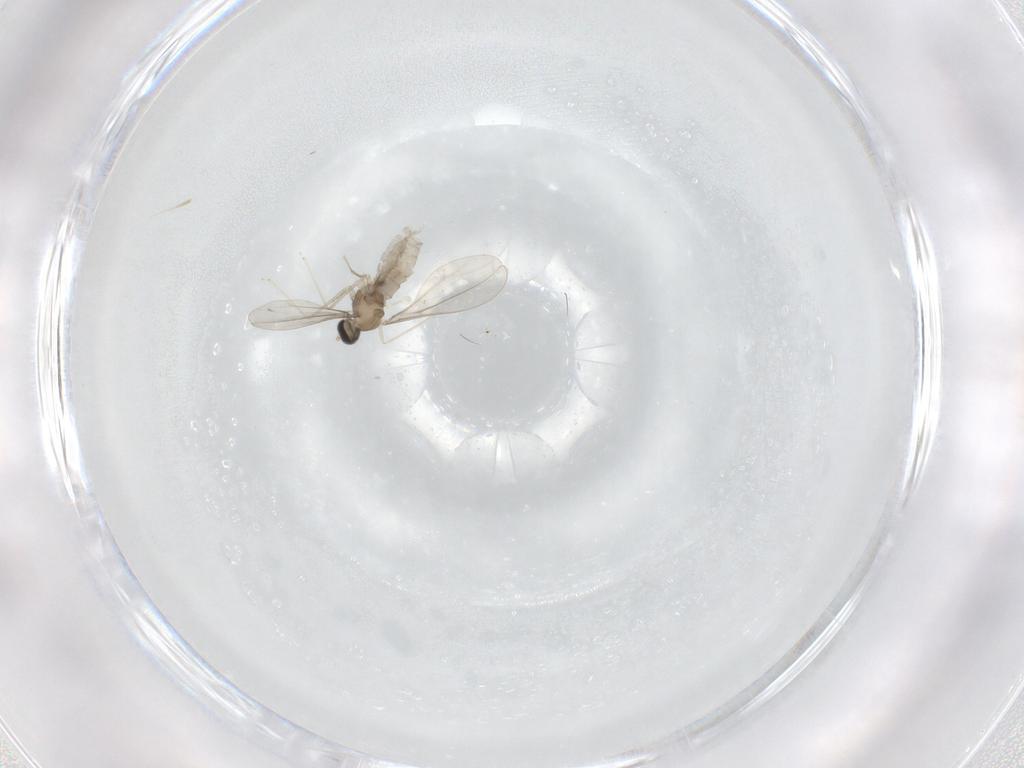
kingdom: Animalia
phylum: Arthropoda
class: Insecta
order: Diptera
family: Cecidomyiidae
